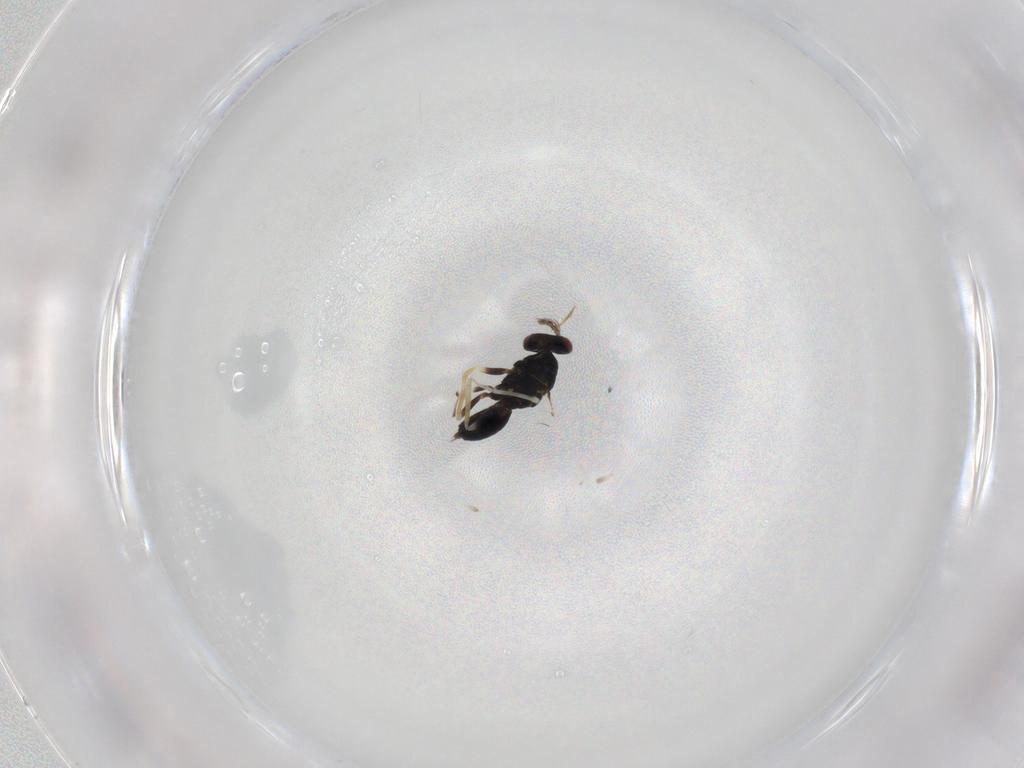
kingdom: Animalia
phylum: Arthropoda
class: Insecta
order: Hymenoptera
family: Eulophidae
